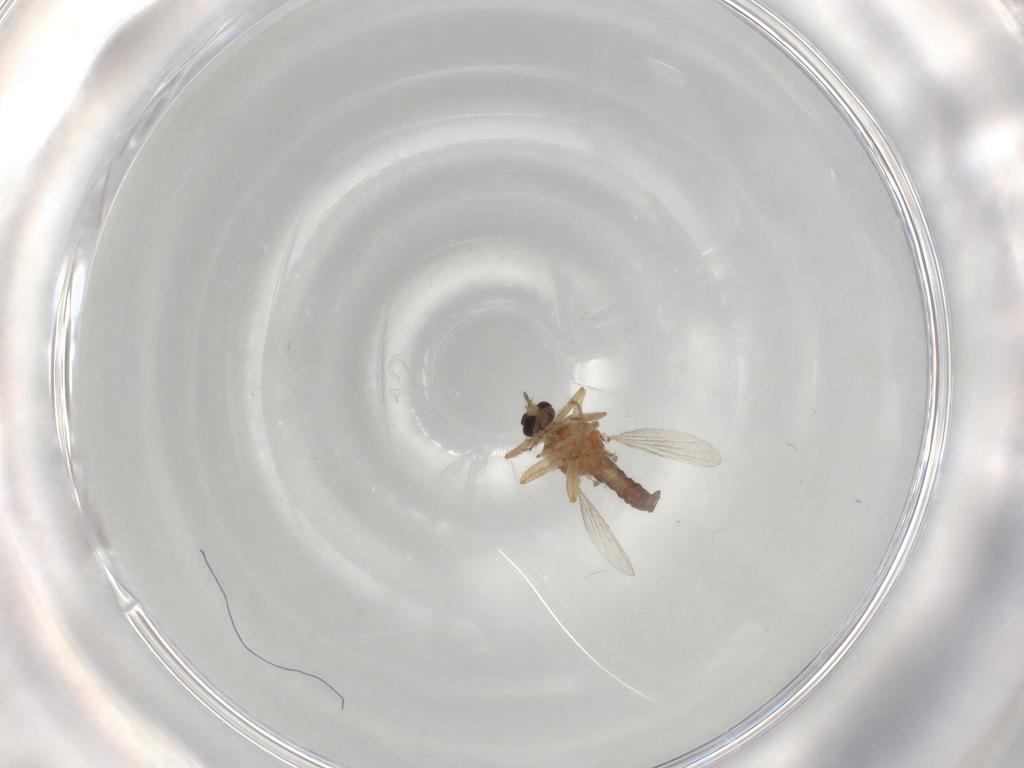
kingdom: Animalia
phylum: Arthropoda
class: Insecta
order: Diptera
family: Ceratopogonidae
